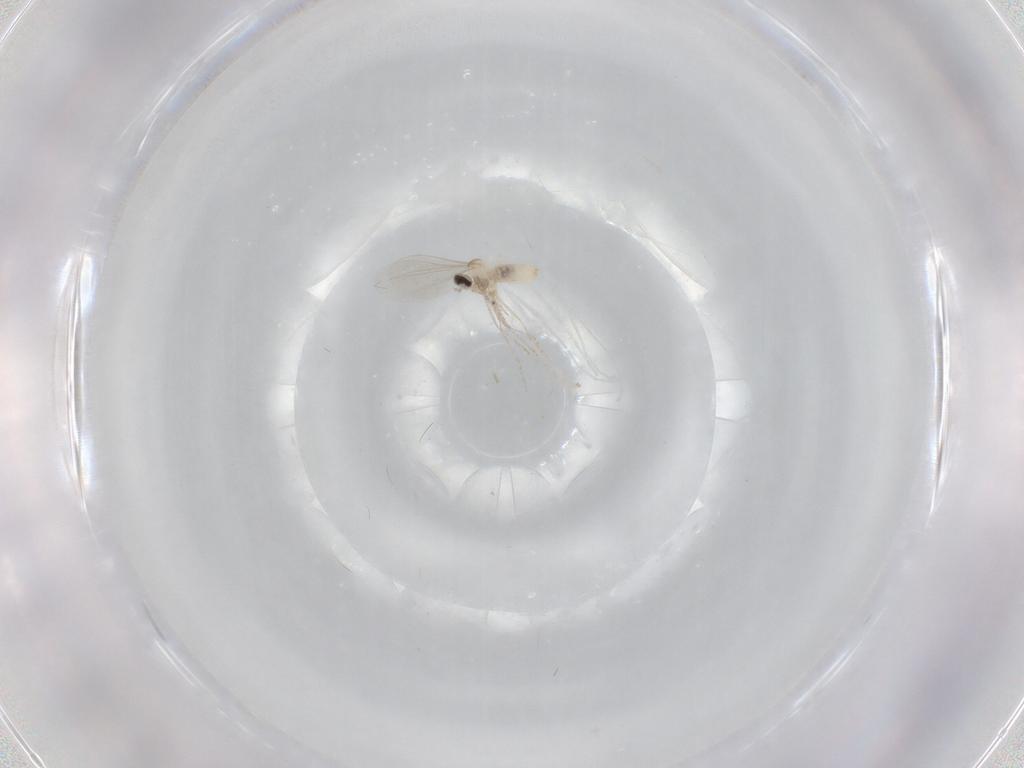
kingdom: Animalia
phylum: Arthropoda
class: Insecta
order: Diptera
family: Cecidomyiidae
